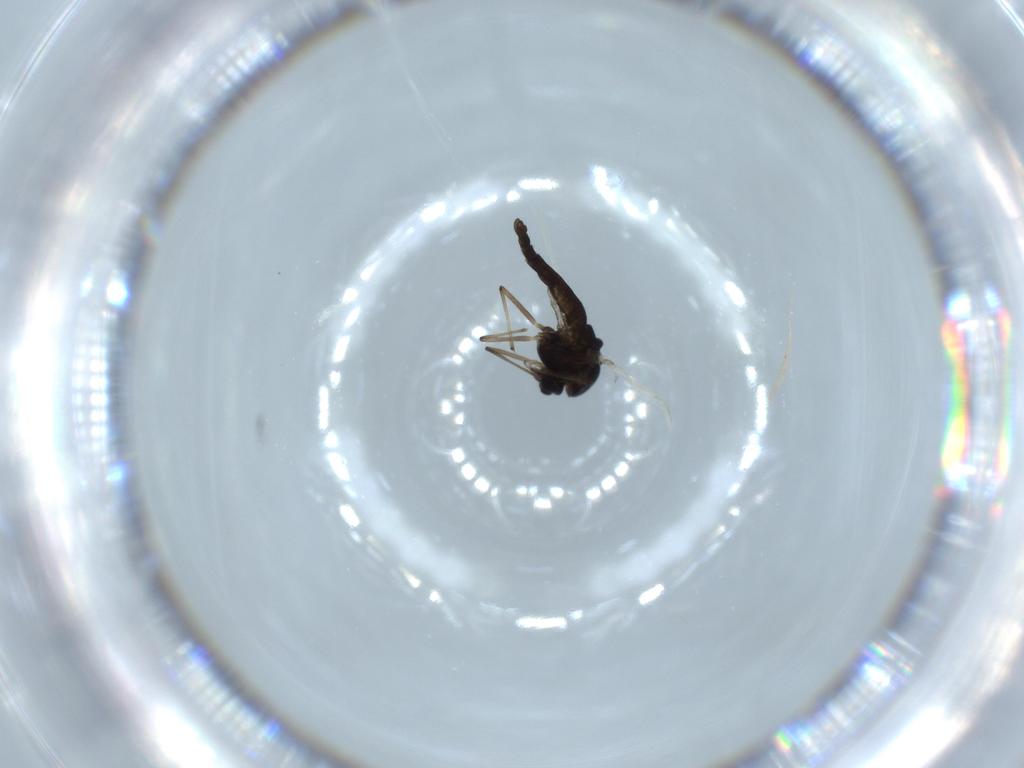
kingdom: Animalia
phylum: Arthropoda
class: Insecta
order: Diptera
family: Chironomidae
